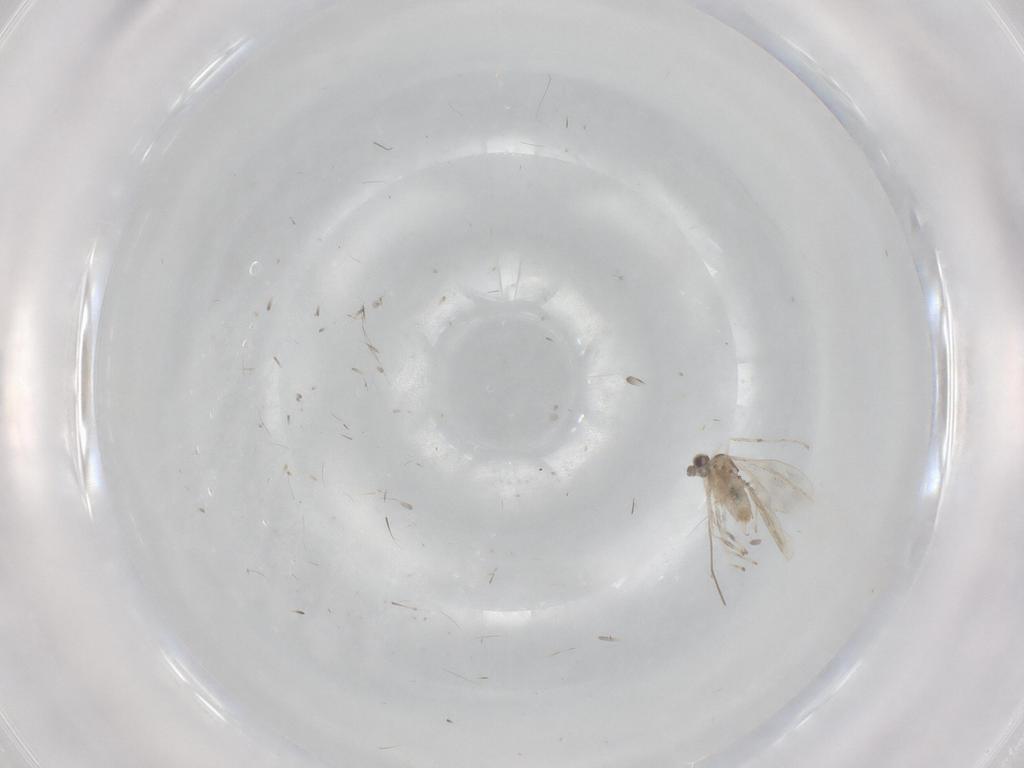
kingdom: Animalia
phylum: Arthropoda
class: Insecta
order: Diptera
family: Cecidomyiidae
